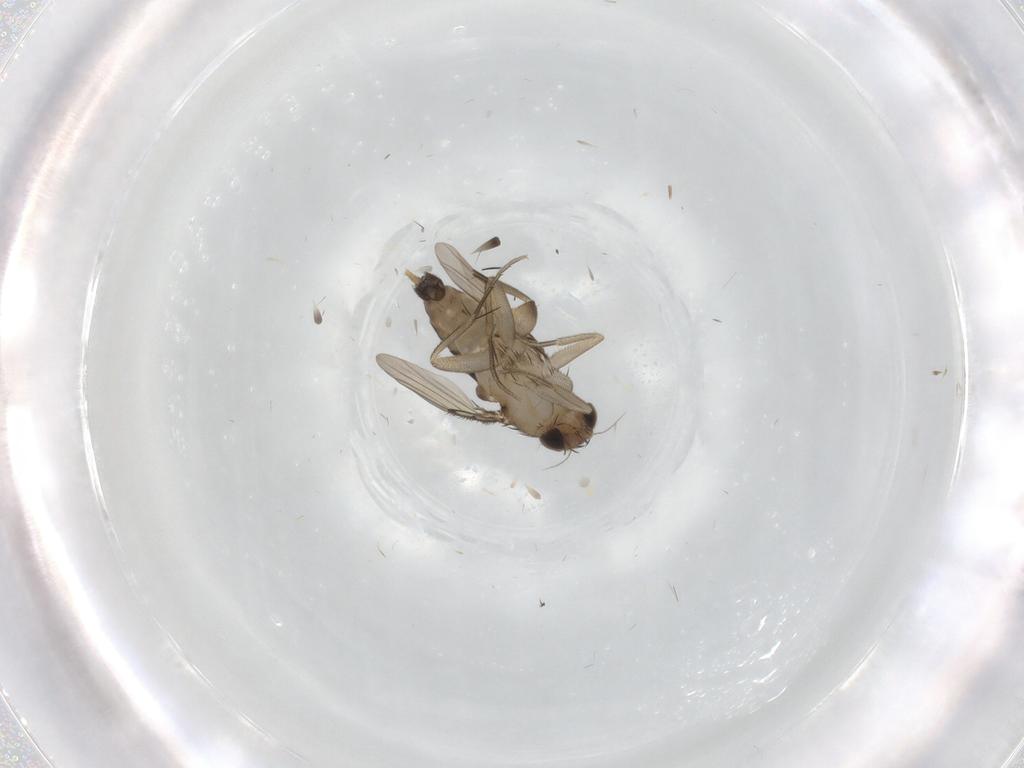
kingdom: Animalia
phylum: Arthropoda
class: Insecta
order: Diptera
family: Phoridae
